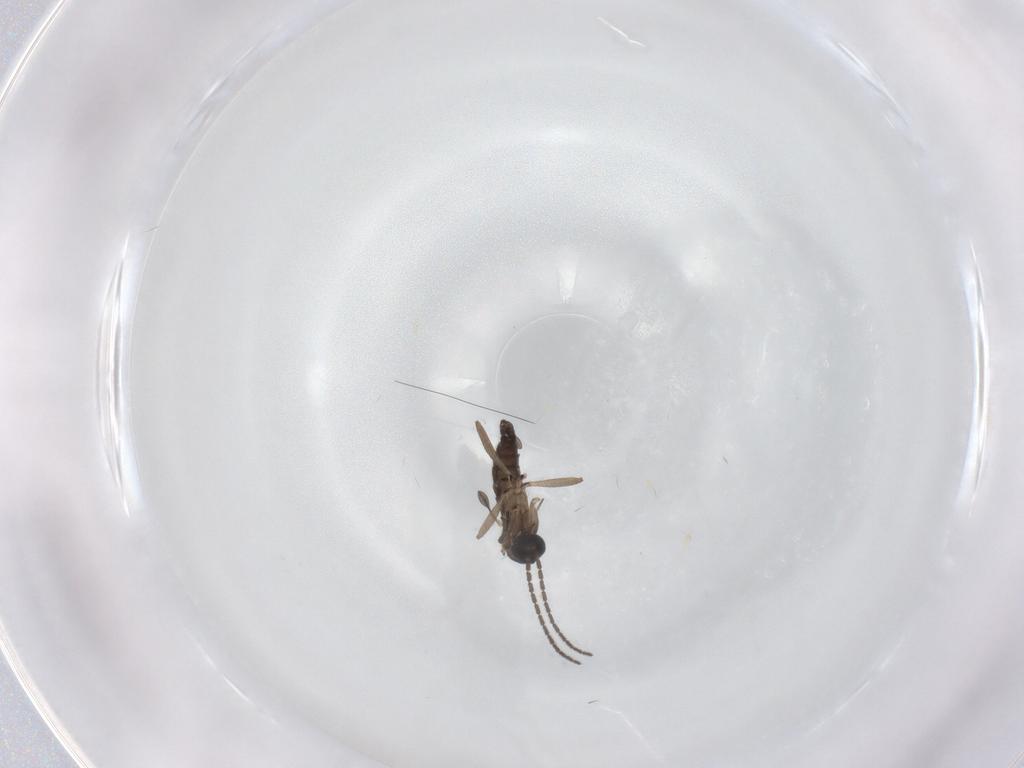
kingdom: Animalia
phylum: Arthropoda
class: Insecta
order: Diptera
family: Sciaridae
